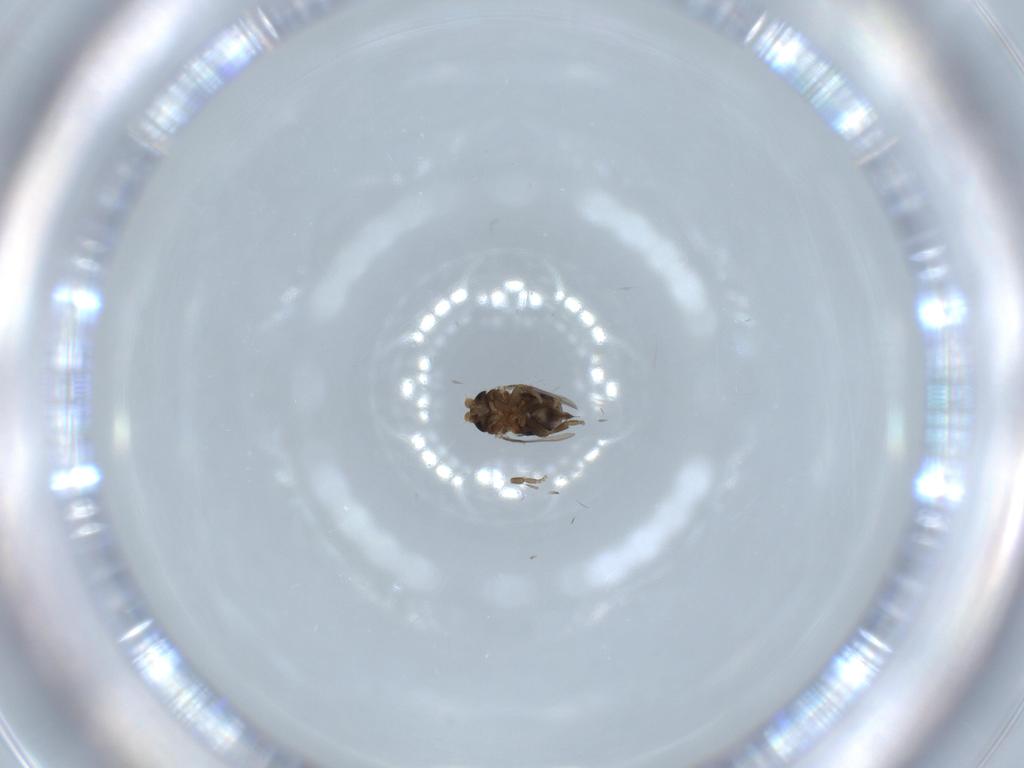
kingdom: Animalia
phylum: Arthropoda
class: Insecta
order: Diptera
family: Phoridae
